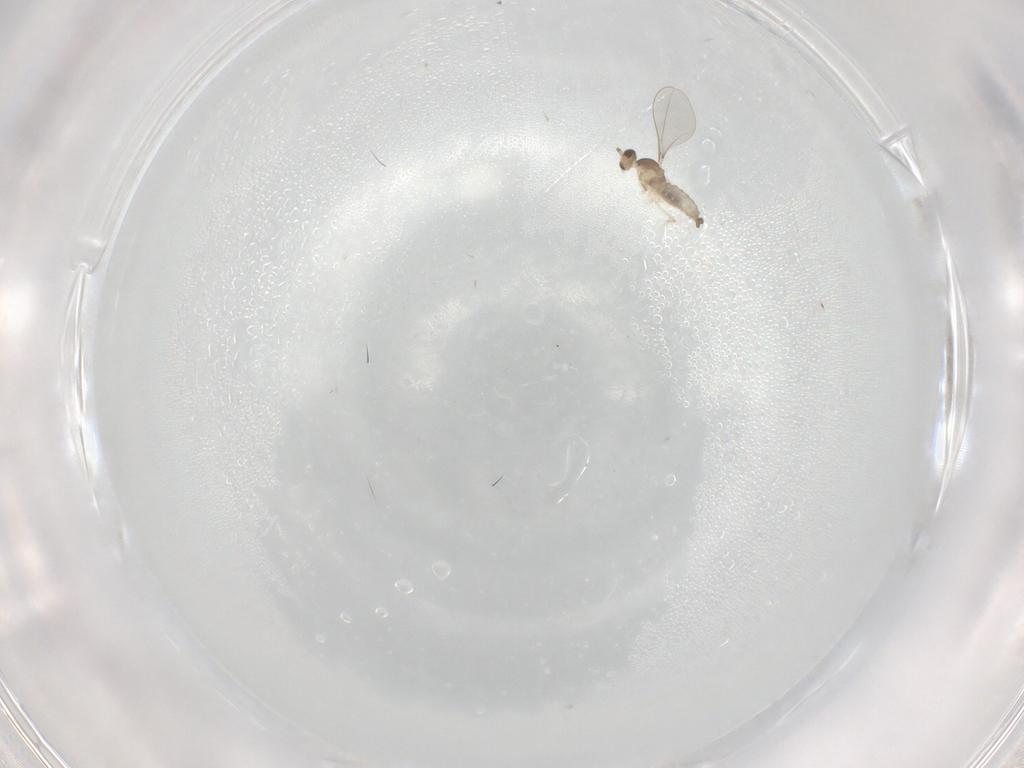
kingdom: Animalia
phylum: Arthropoda
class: Insecta
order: Diptera
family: Cecidomyiidae
